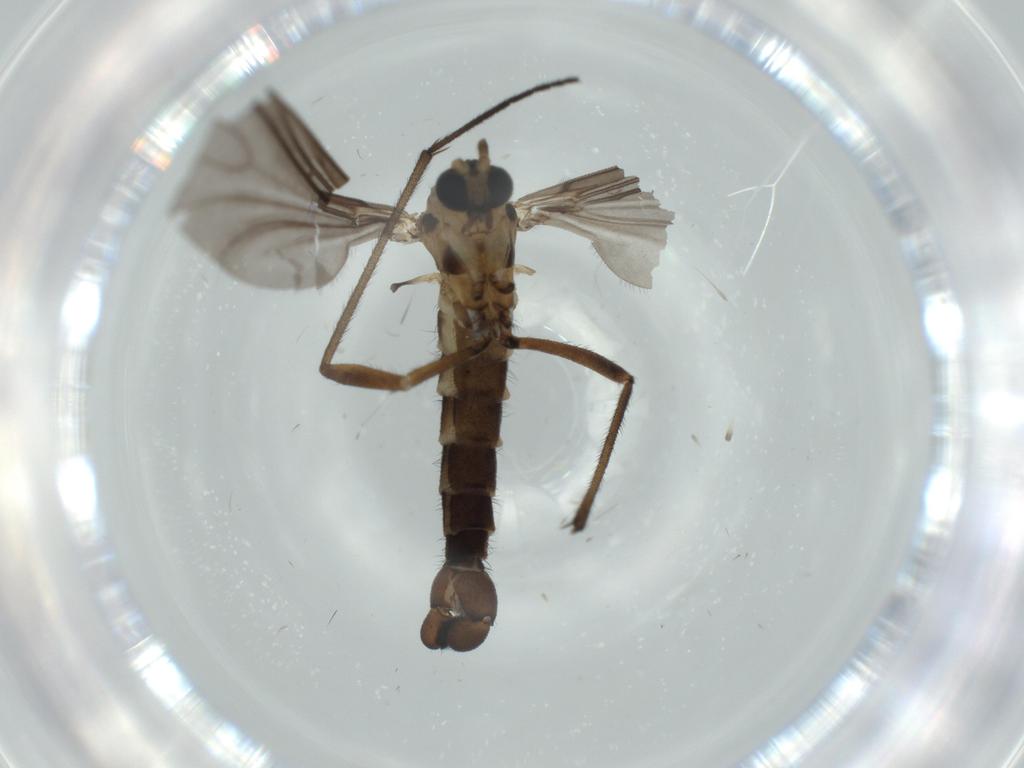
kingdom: Animalia
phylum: Arthropoda
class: Insecta
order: Diptera
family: Sciaridae
